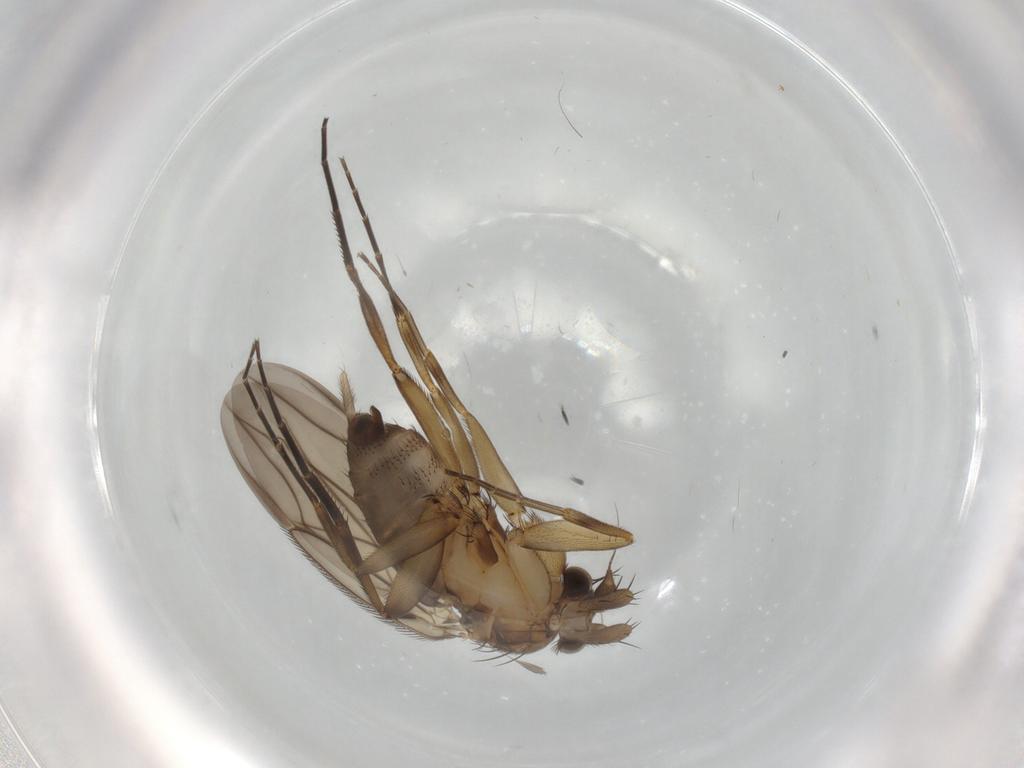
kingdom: Animalia
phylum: Arthropoda
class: Insecta
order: Diptera
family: Phoridae
